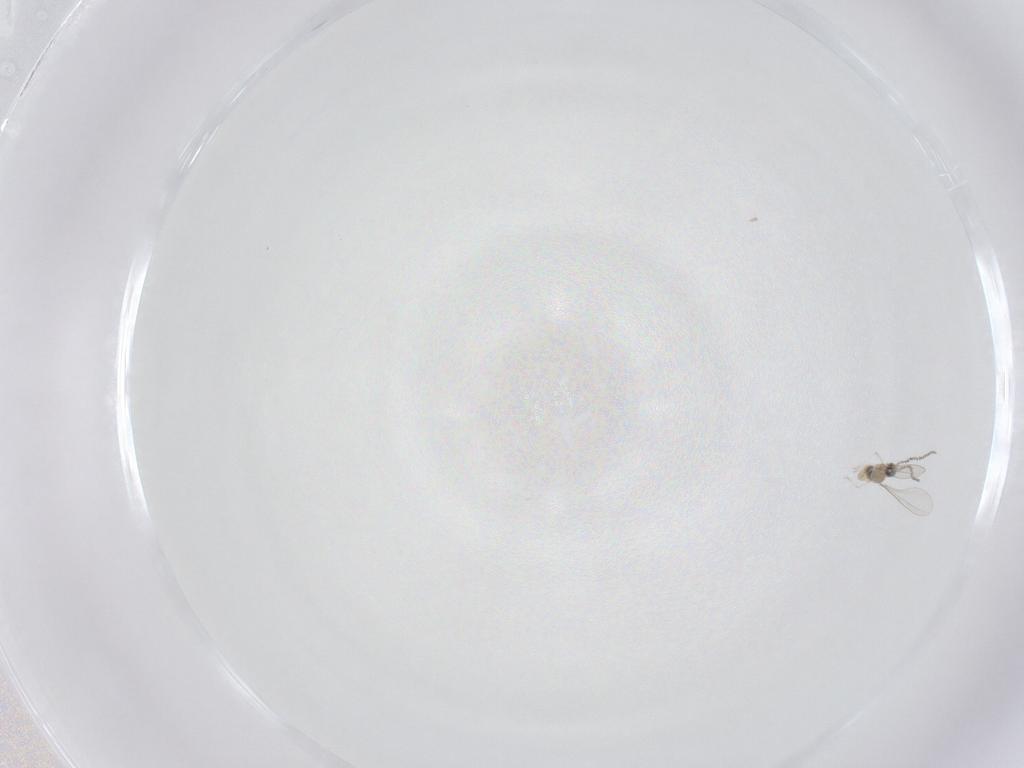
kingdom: Animalia
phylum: Arthropoda
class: Insecta
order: Diptera
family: Cecidomyiidae
